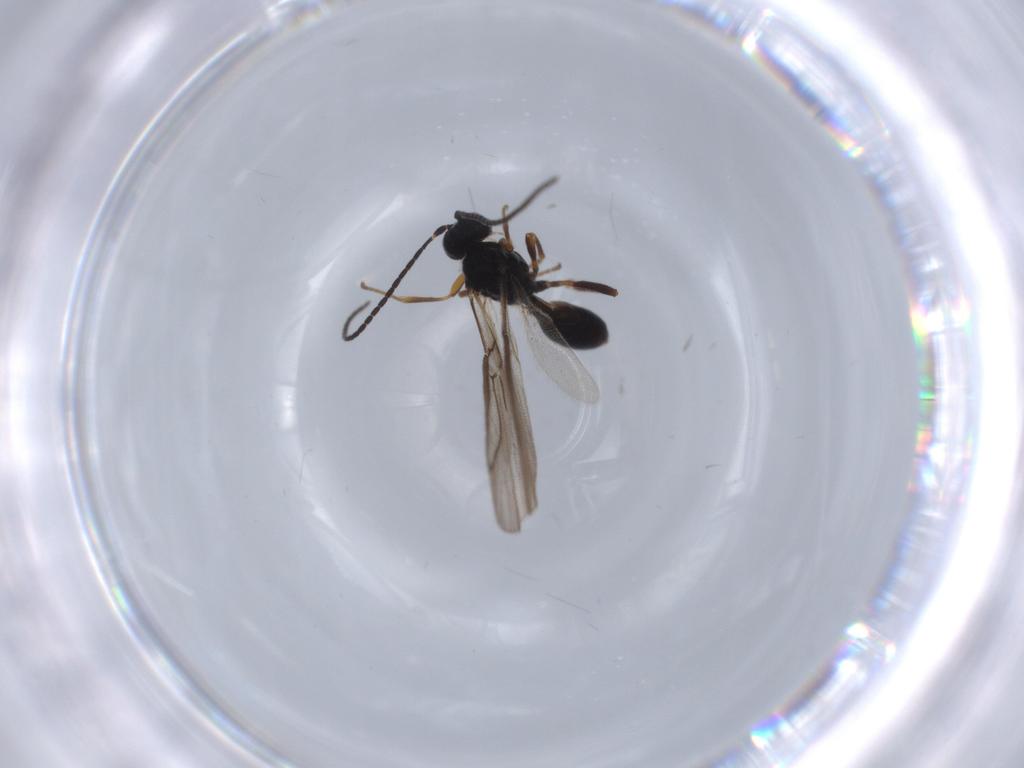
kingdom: Animalia
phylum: Arthropoda
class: Insecta
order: Hymenoptera
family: Braconidae
